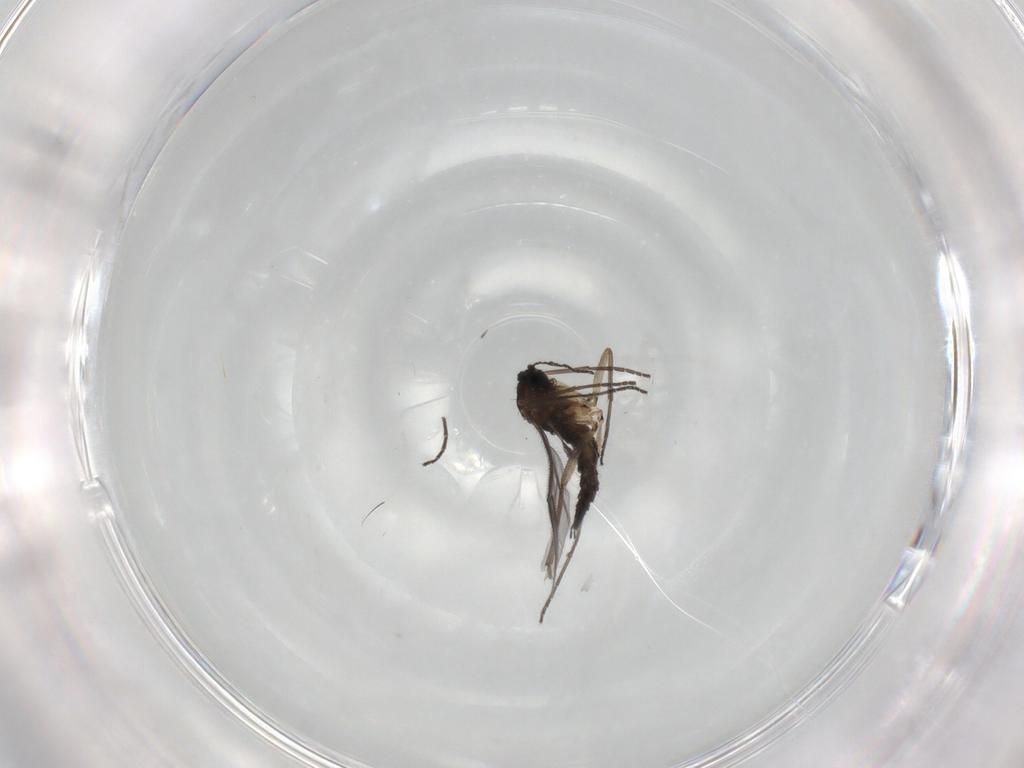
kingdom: Animalia
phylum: Arthropoda
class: Insecta
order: Diptera
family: Sciaridae
